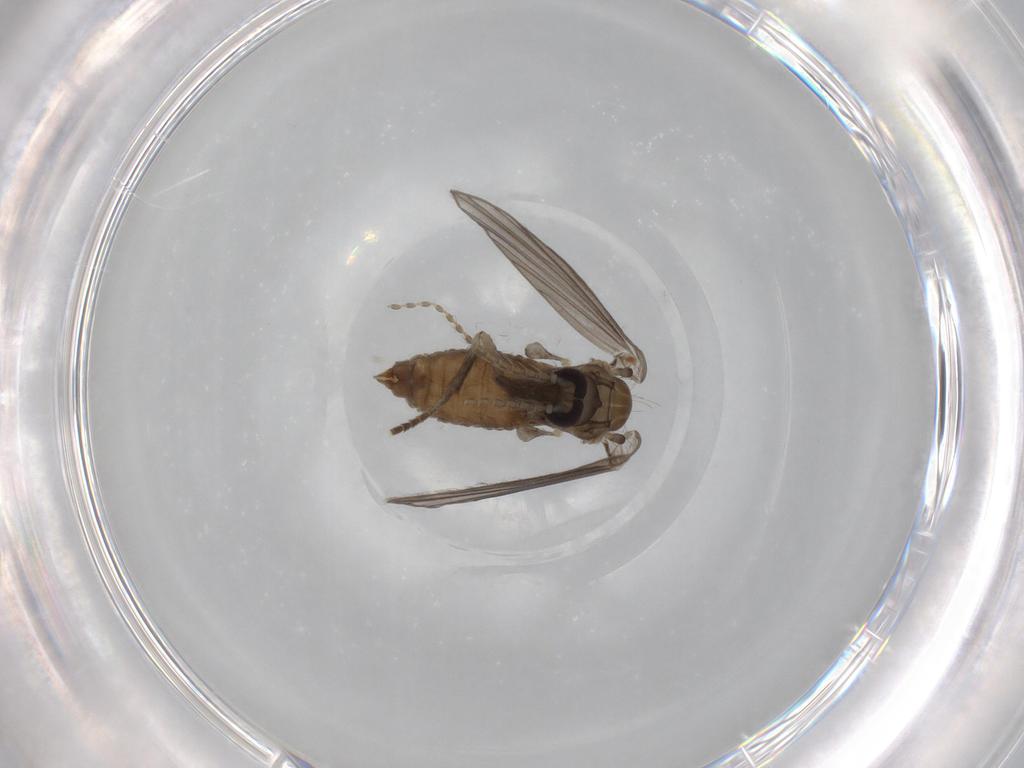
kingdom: Animalia
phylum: Arthropoda
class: Insecta
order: Diptera
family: Psychodidae
